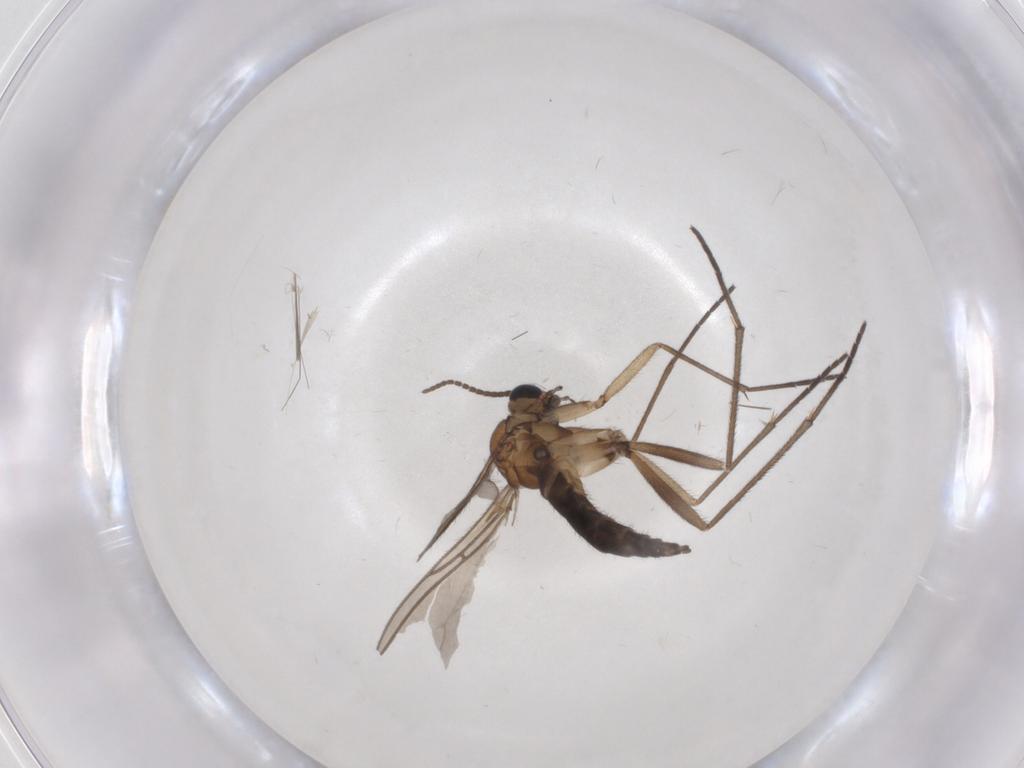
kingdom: Animalia
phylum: Arthropoda
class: Insecta
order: Diptera
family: Sciaridae
